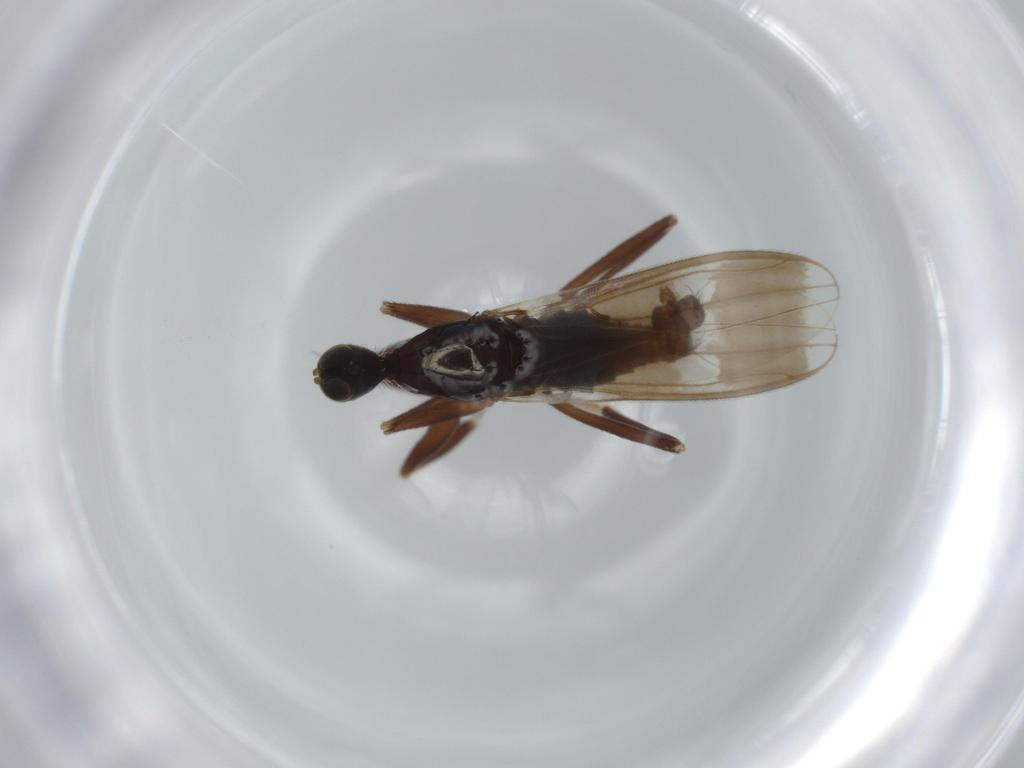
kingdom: Animalia
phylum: Arthropoda
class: Insecta
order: Diptera
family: Hybotidae
